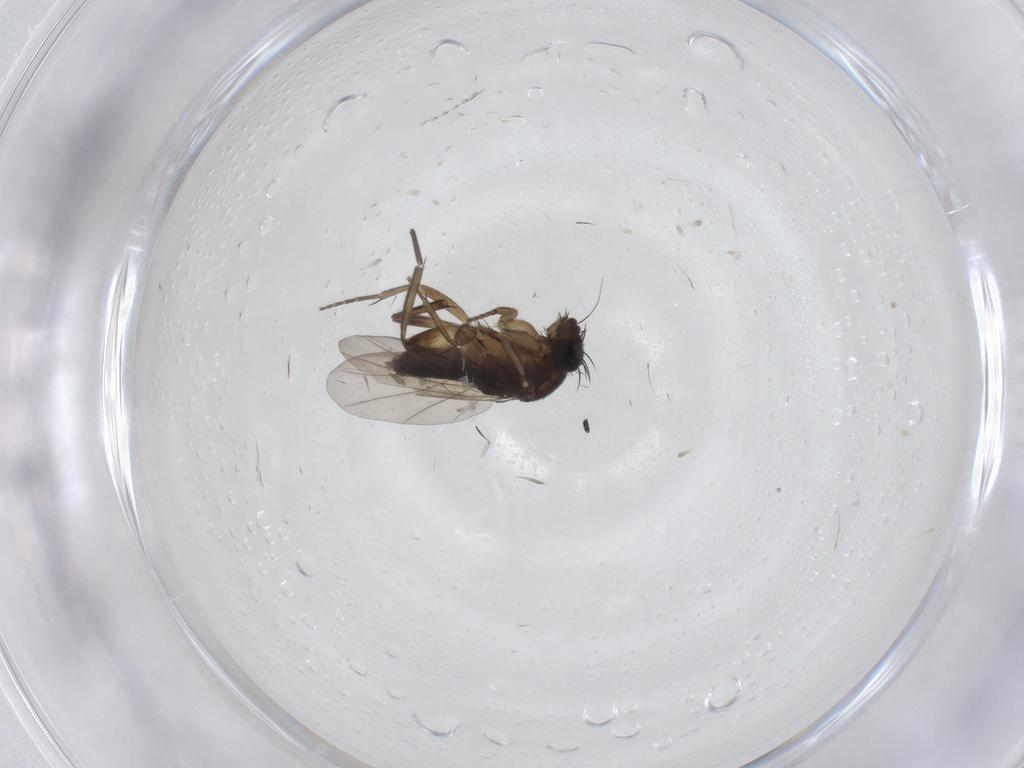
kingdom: Animalia
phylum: Arthropoda
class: Insecta
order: Diptera
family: Phoridae
